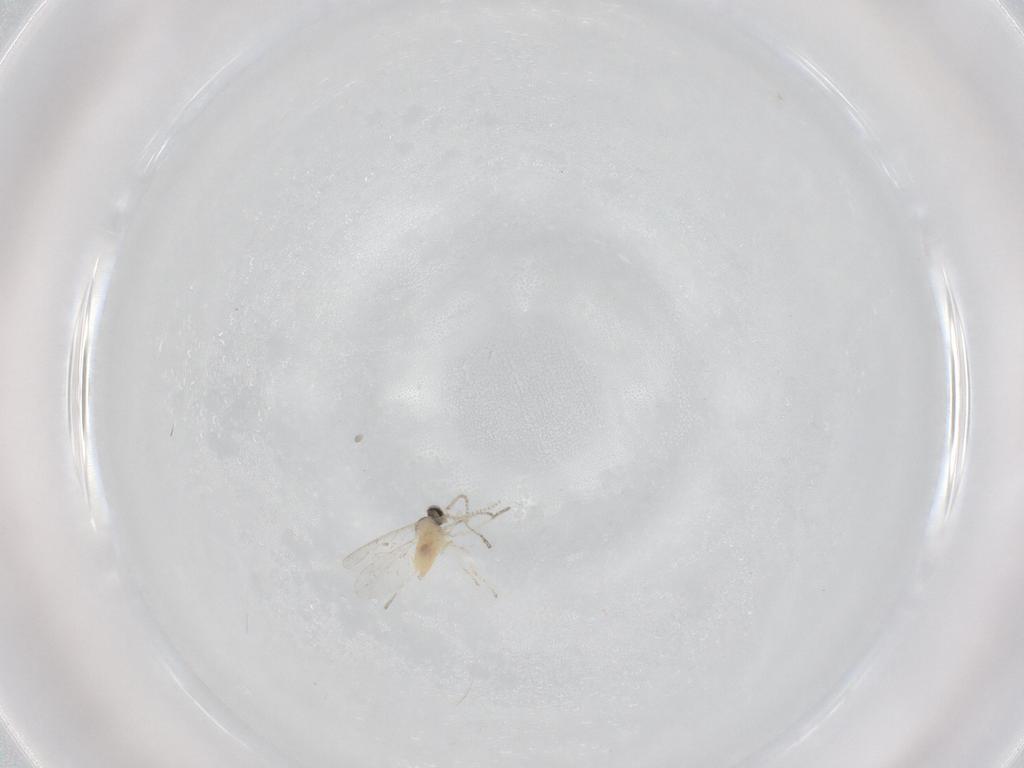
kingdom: Animalia
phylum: Arthropoda
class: Insecta
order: Diptera
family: Cecidomyiidae
